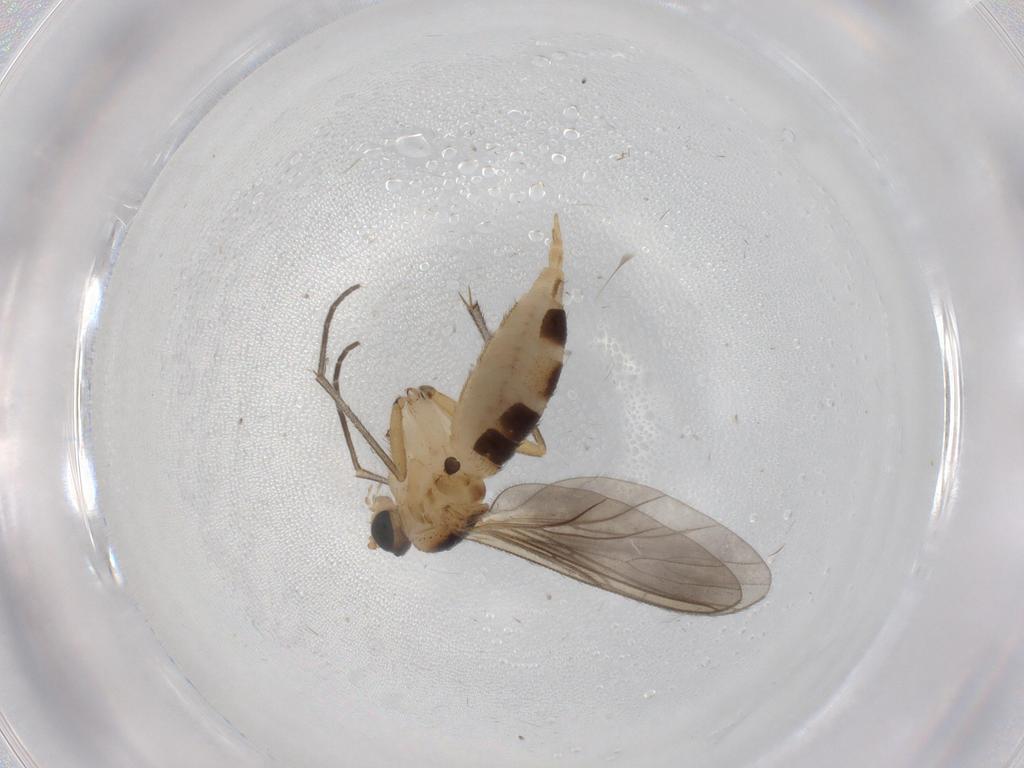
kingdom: Animalia
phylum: Arthropoda
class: Insecta
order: Diptera
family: Sciaridae
